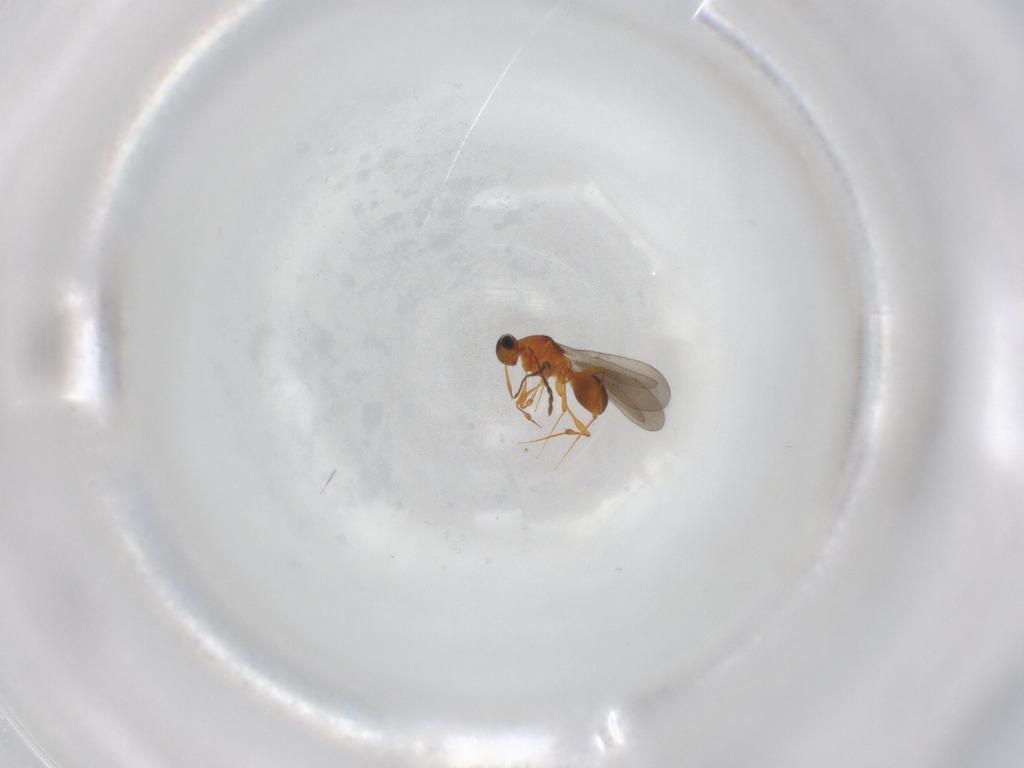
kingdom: Animalia
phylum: Arthropoda
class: Insecta
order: Hymenoptera
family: Platygastridae
